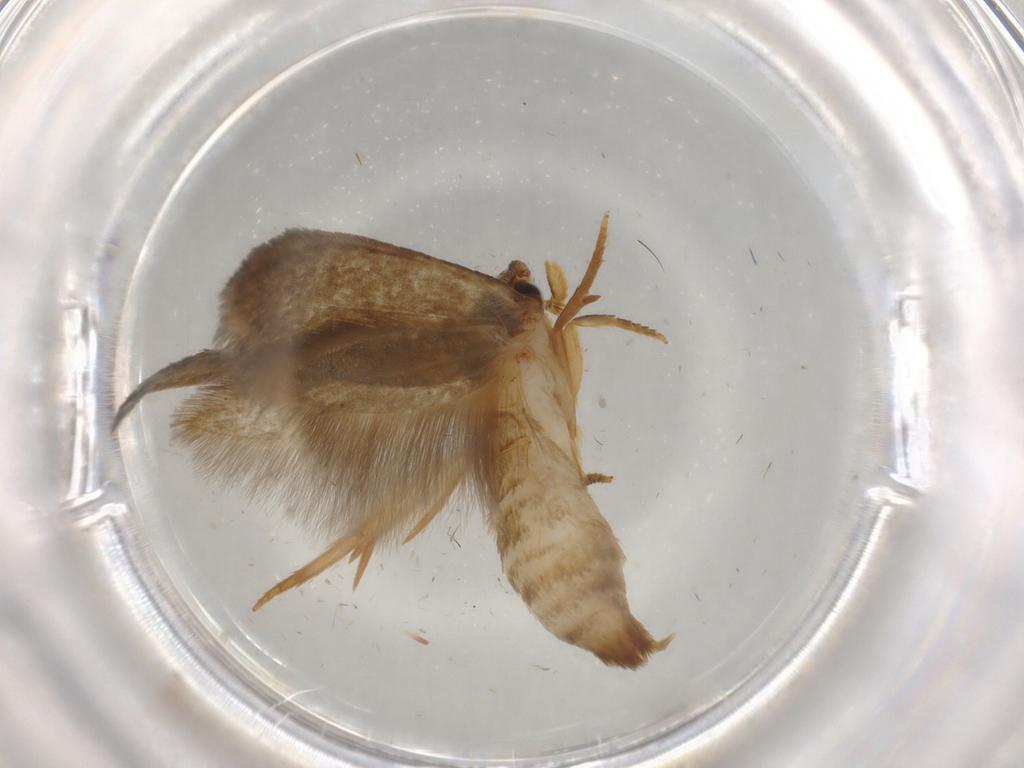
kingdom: Animalia
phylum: Arthropoda
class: Insecta
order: Lepidoptera
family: Tineidae
